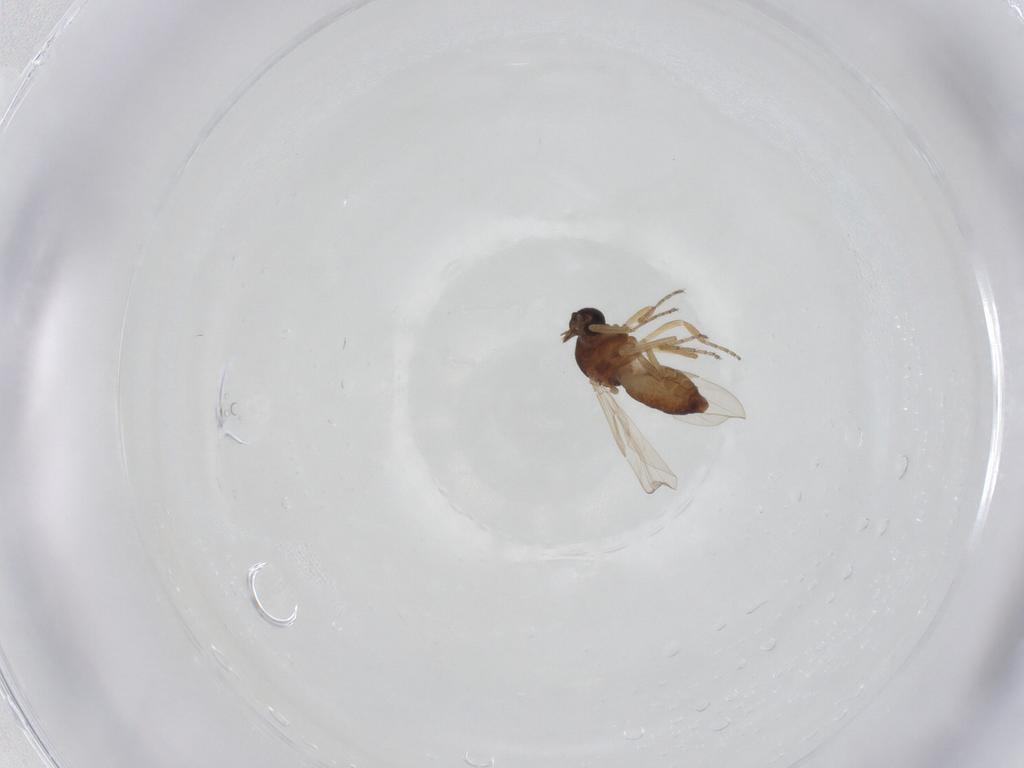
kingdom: Animalia
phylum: Arthropoda
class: Insecta
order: Diptera
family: Ceratopogonidae
